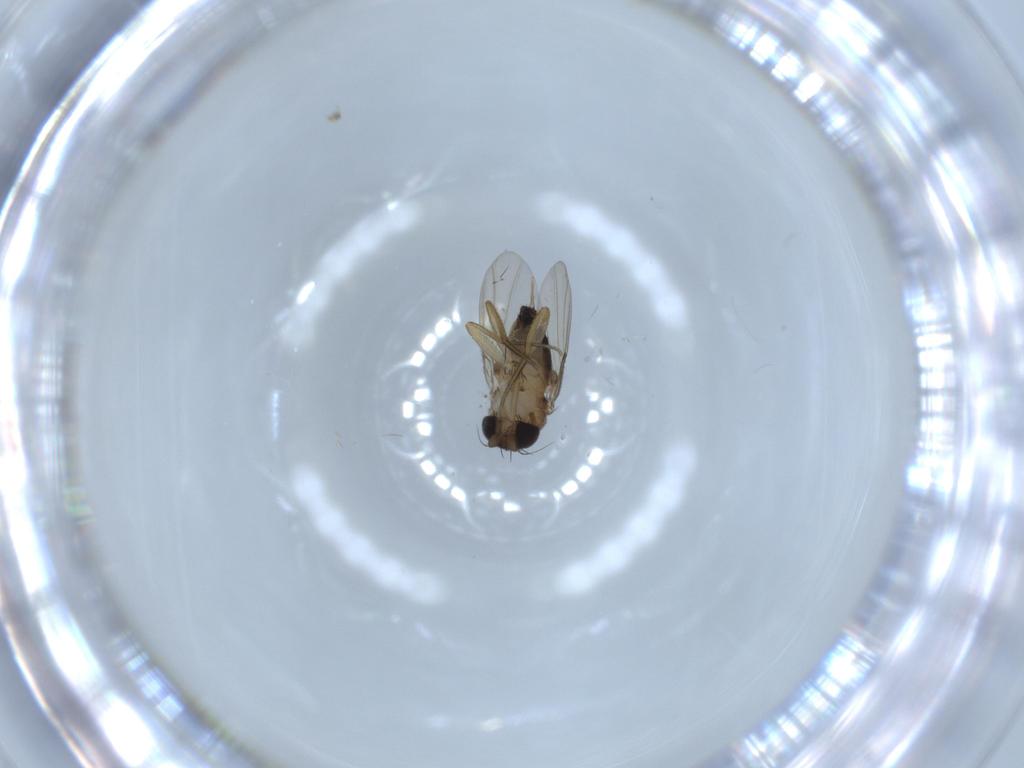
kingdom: Animalia
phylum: Arthropoda
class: Insecta
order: Diptera
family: Phoridae
